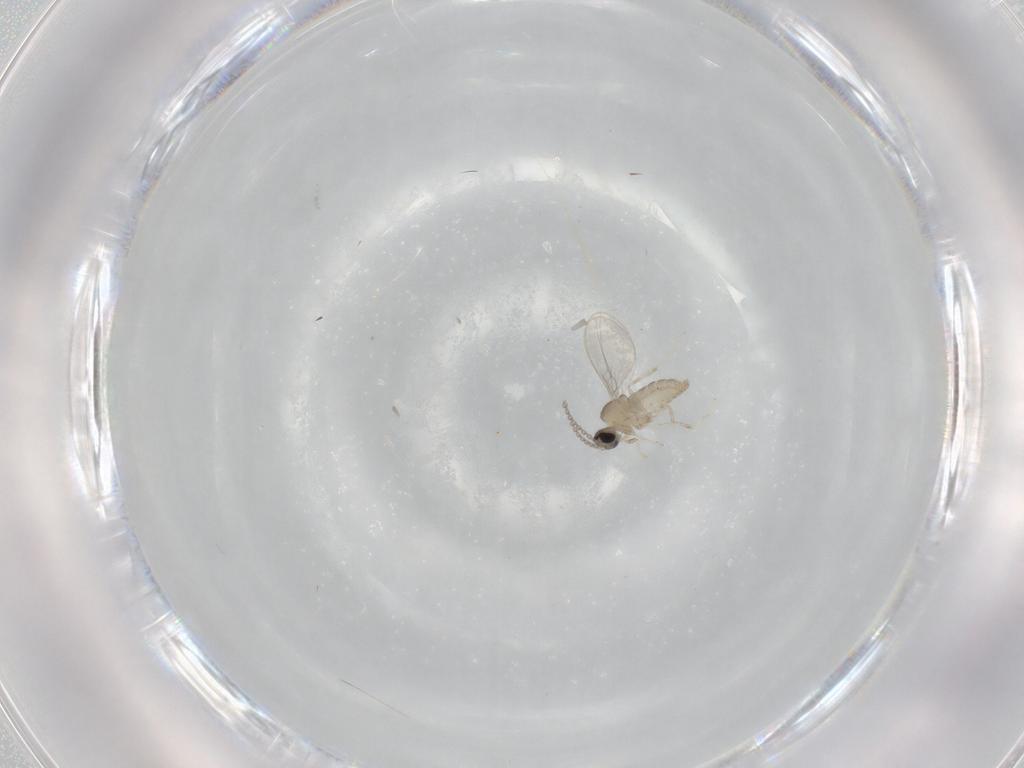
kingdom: Animalia
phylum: Arthropoda
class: Insecta
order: Diptera
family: Cecidomyiidae
